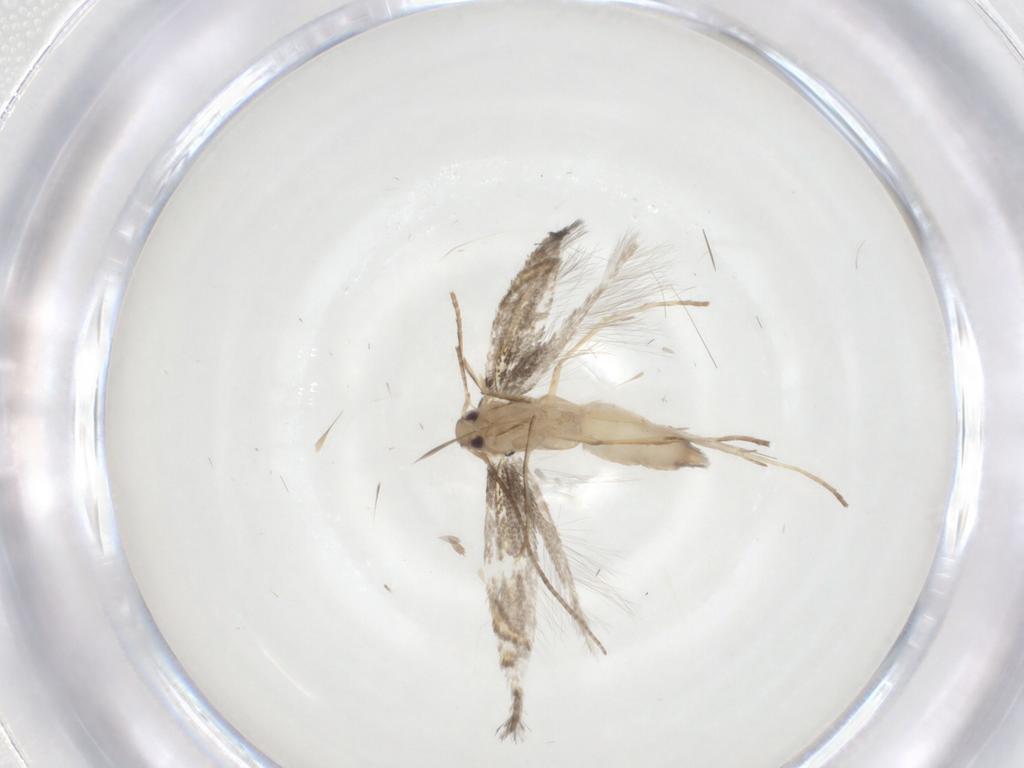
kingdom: Animalia
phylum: Arthropoda
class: Insecta
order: Lepidoptera
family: Gracillariidae
